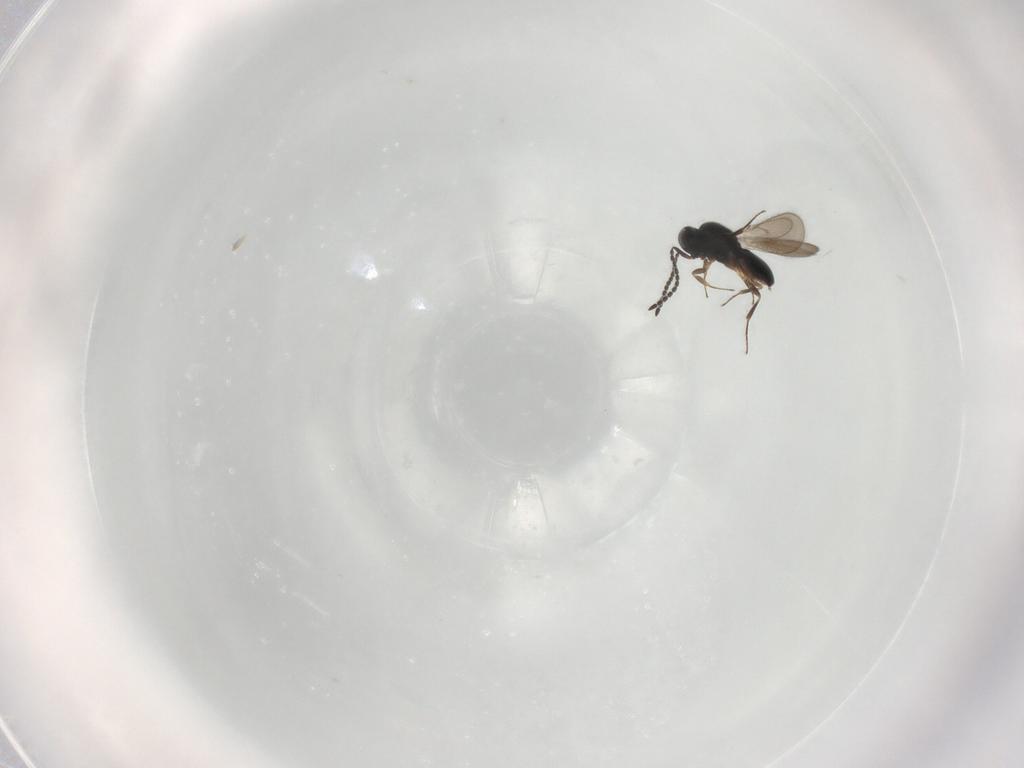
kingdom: Animalia
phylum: Arthropoda
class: Insecta
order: Hymenoptera
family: Scelionidae
